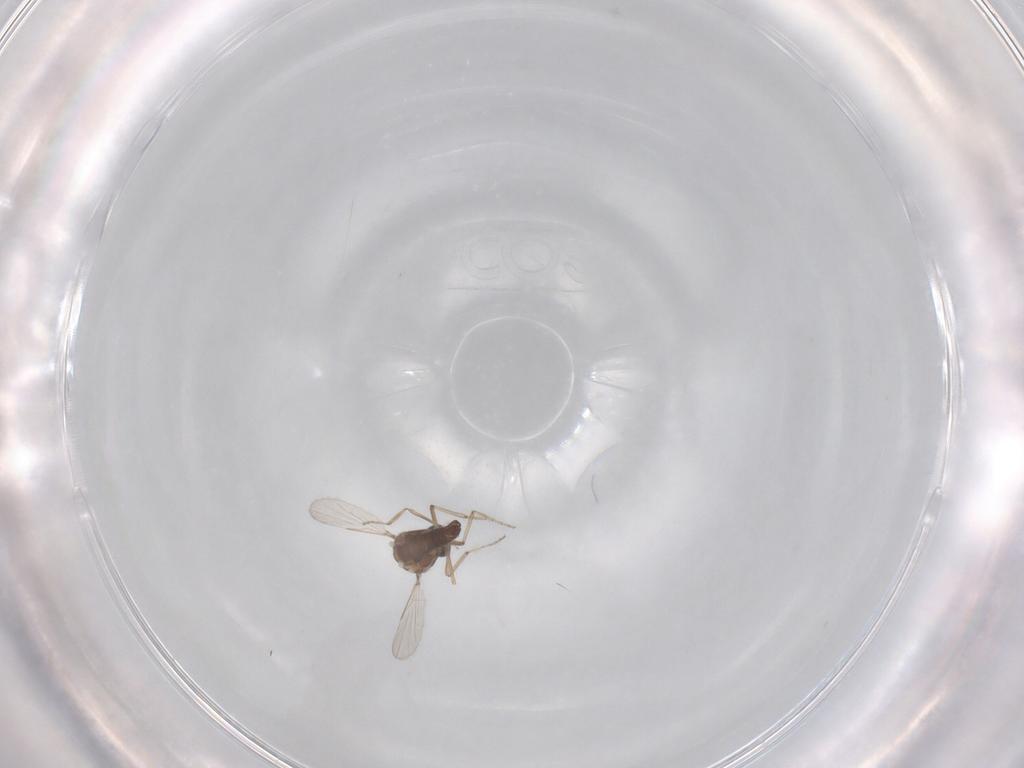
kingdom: Animalia
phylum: Arthropoda
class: Insecta
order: Diptera
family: Ceratopogonidae
